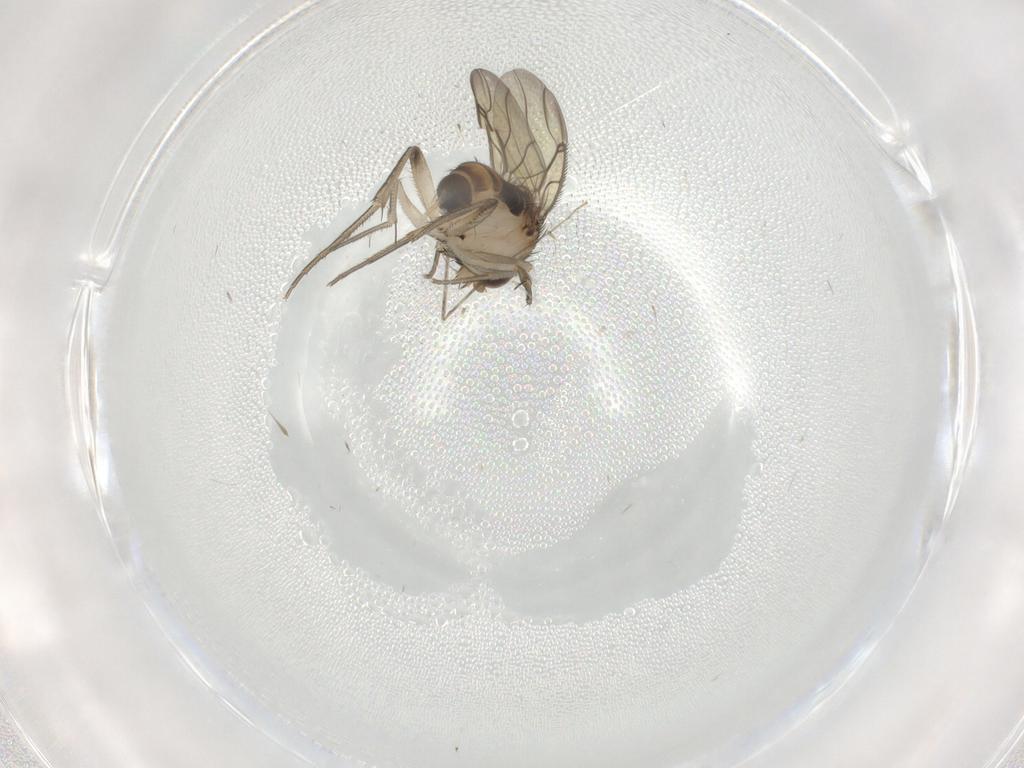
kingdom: Animalia
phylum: Arthropoda
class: Insecta
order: Diptera
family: Phoridae
